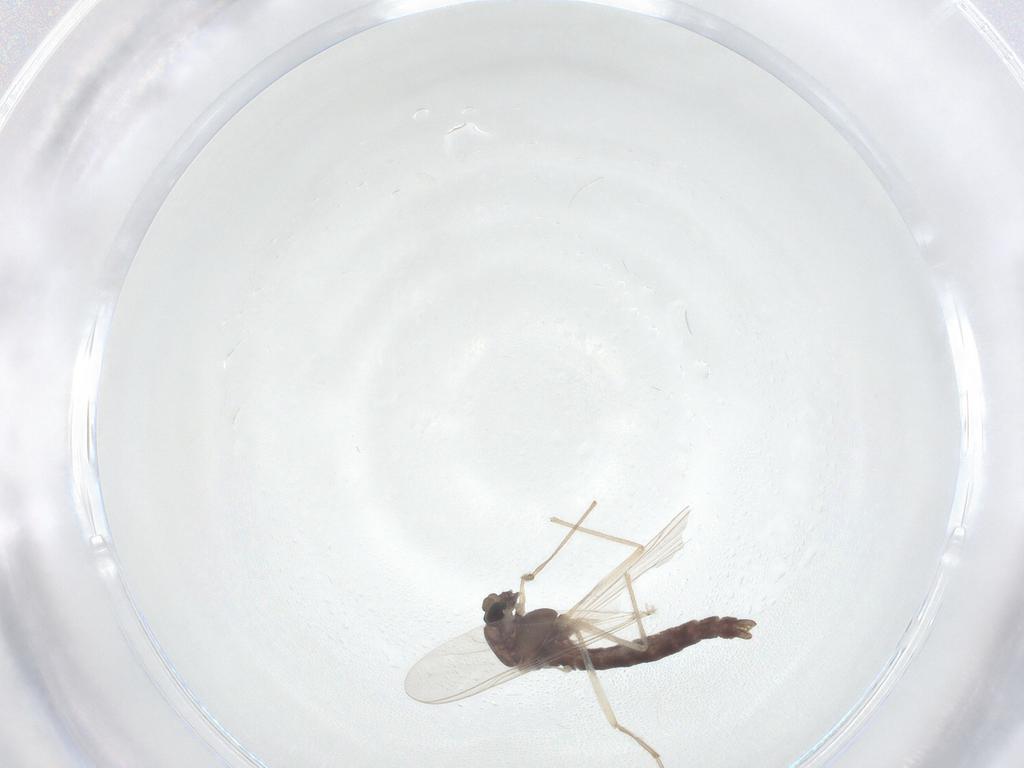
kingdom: Animalia
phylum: Arthropoda
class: Insecta
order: Diptera
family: Chironomidae
